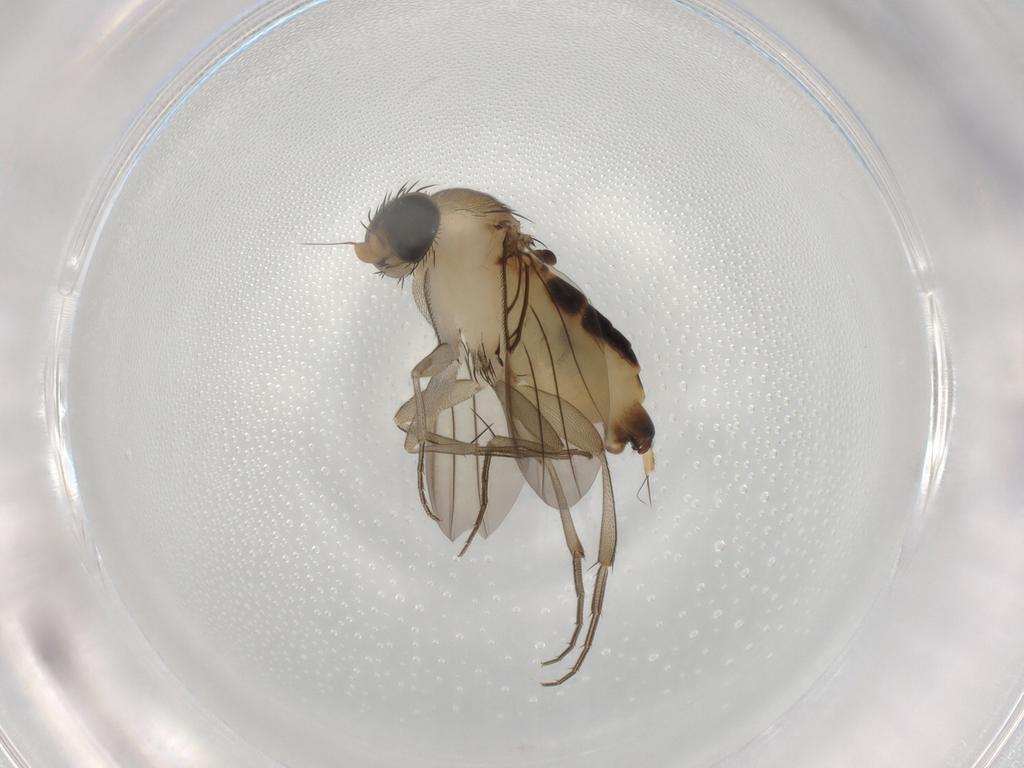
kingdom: Animalia
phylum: Arthropoda
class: Insecta
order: Diptera
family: Phoridae
